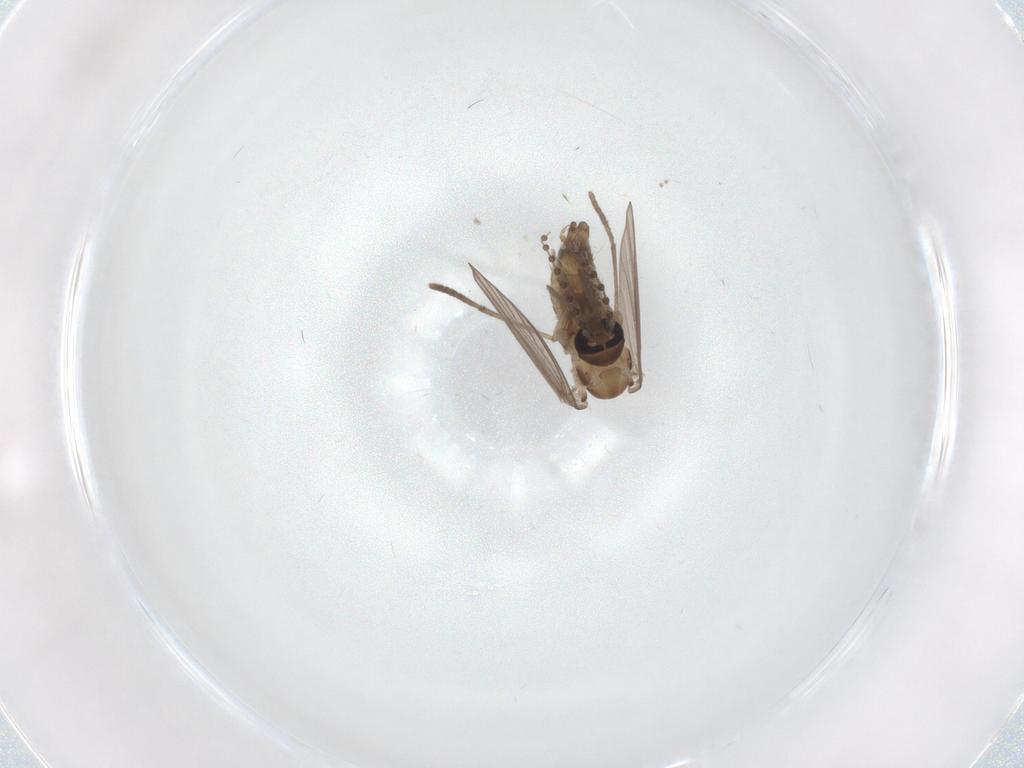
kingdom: Animalia
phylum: Arthropoda
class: Insecta
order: Diptera
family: Psychodidae
